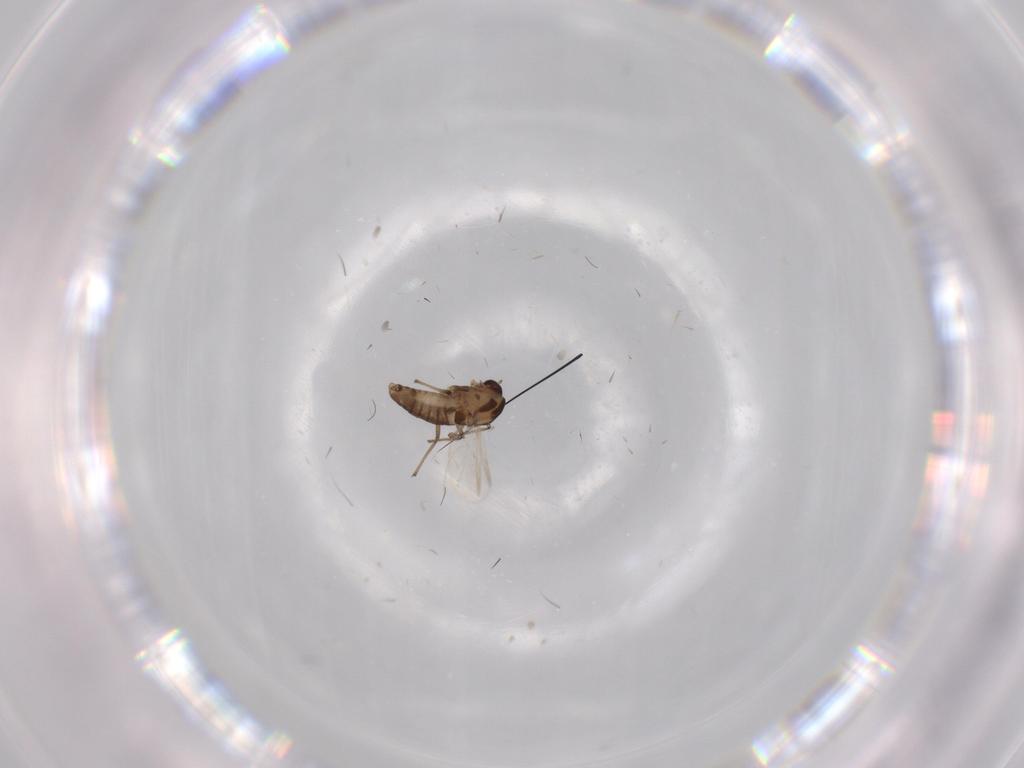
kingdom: Animalia
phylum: Arthropoda
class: Insecta
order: Diptera
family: Chironomidae
